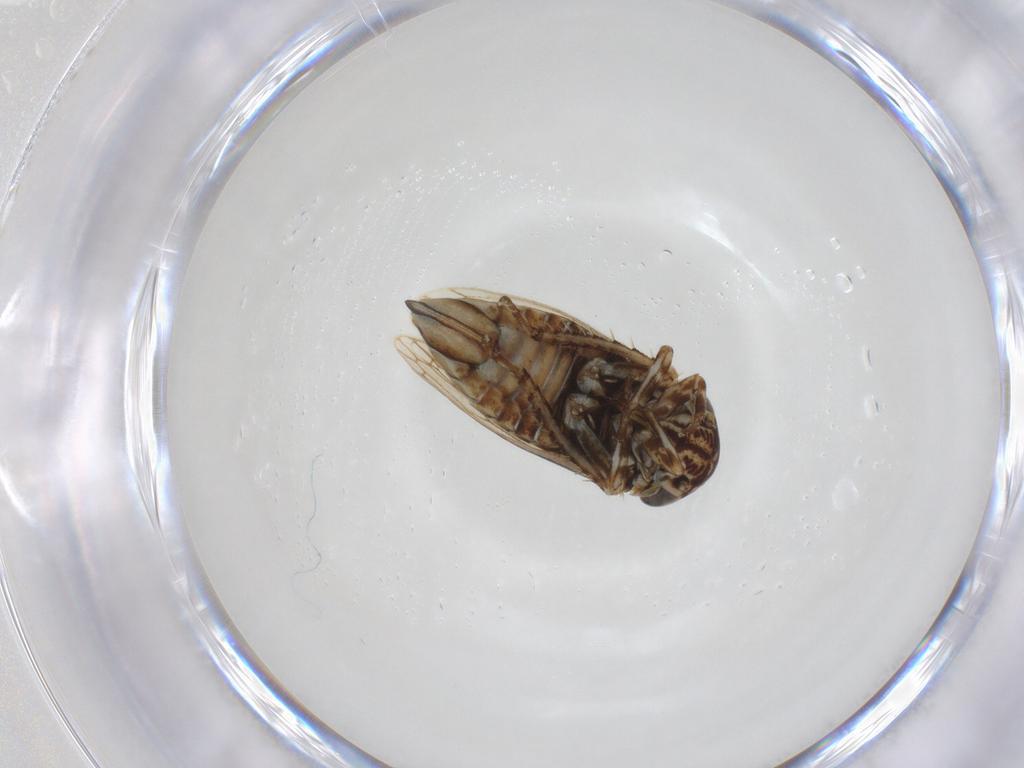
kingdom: Animalia
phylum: Arthropoda
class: Insecta
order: Hemiptera
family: Cicadellidae
